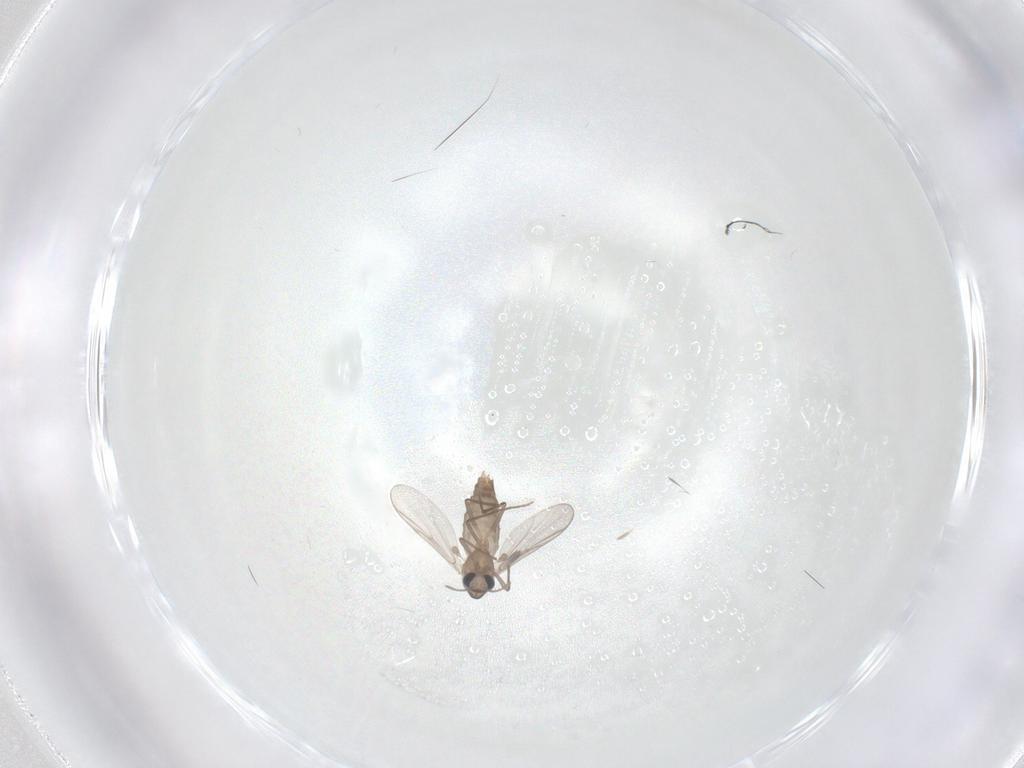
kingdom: Animalia
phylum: Arthropoda
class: Insecta
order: Diptera
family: Chironomidae
